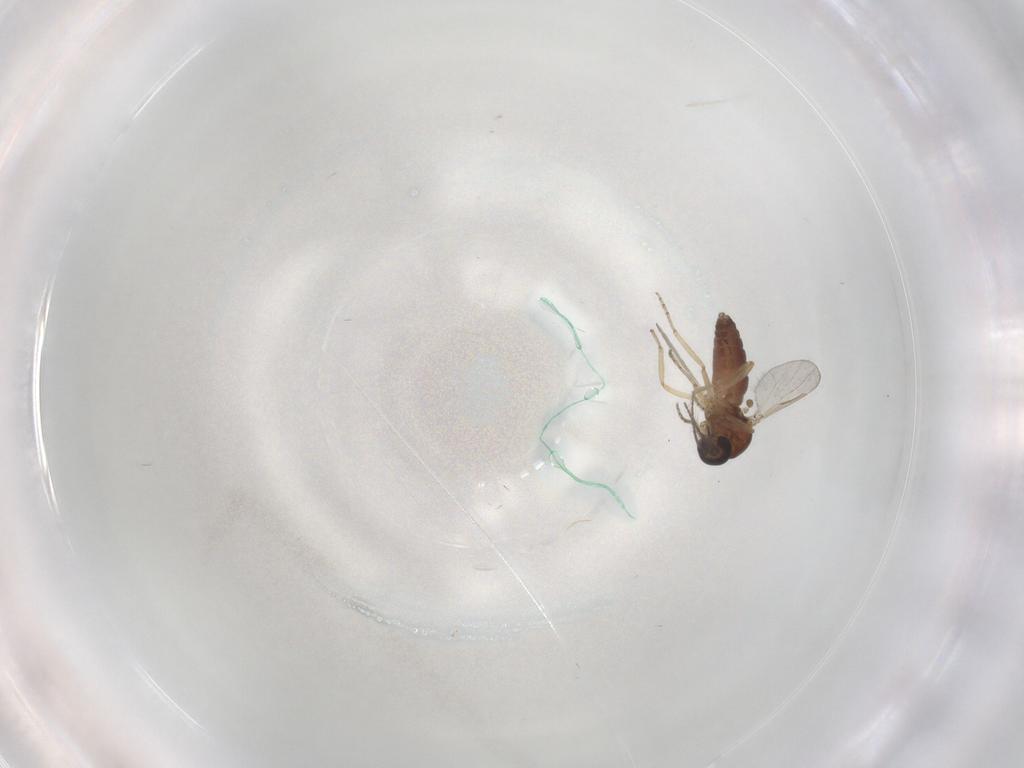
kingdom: Animalia
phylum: Arthropoda
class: Insecta
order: Diptera
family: Ceratopogonidae
